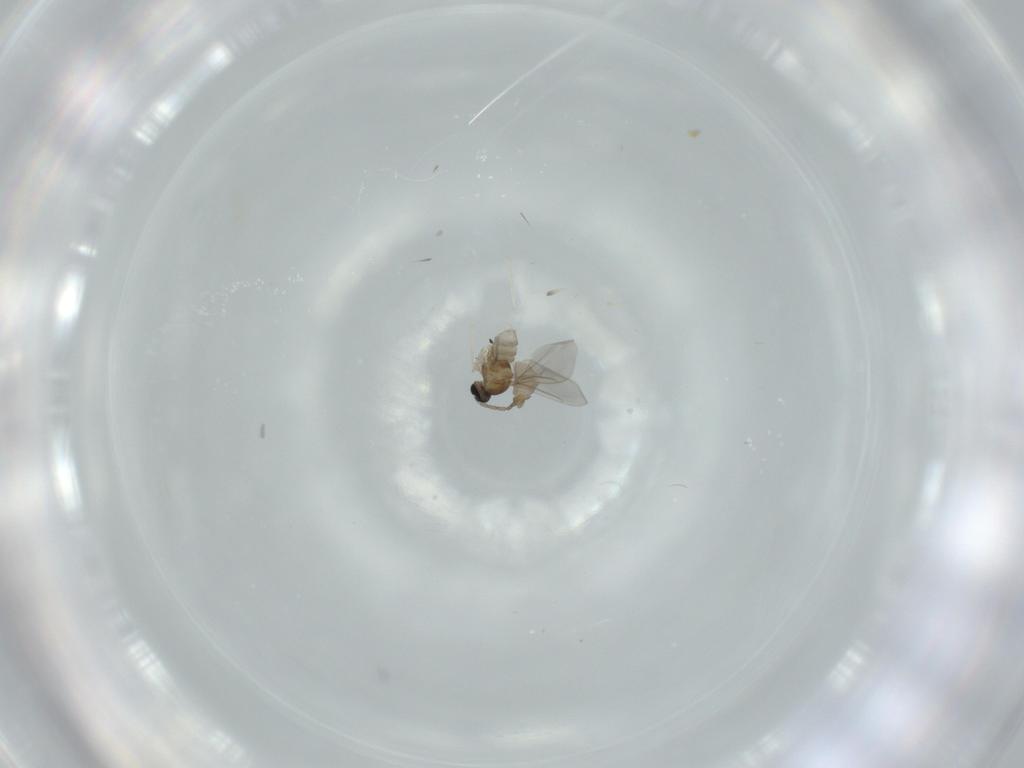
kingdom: Animalia
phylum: Arthropoda
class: Insecta
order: Diptera
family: Cecidomyiidae
